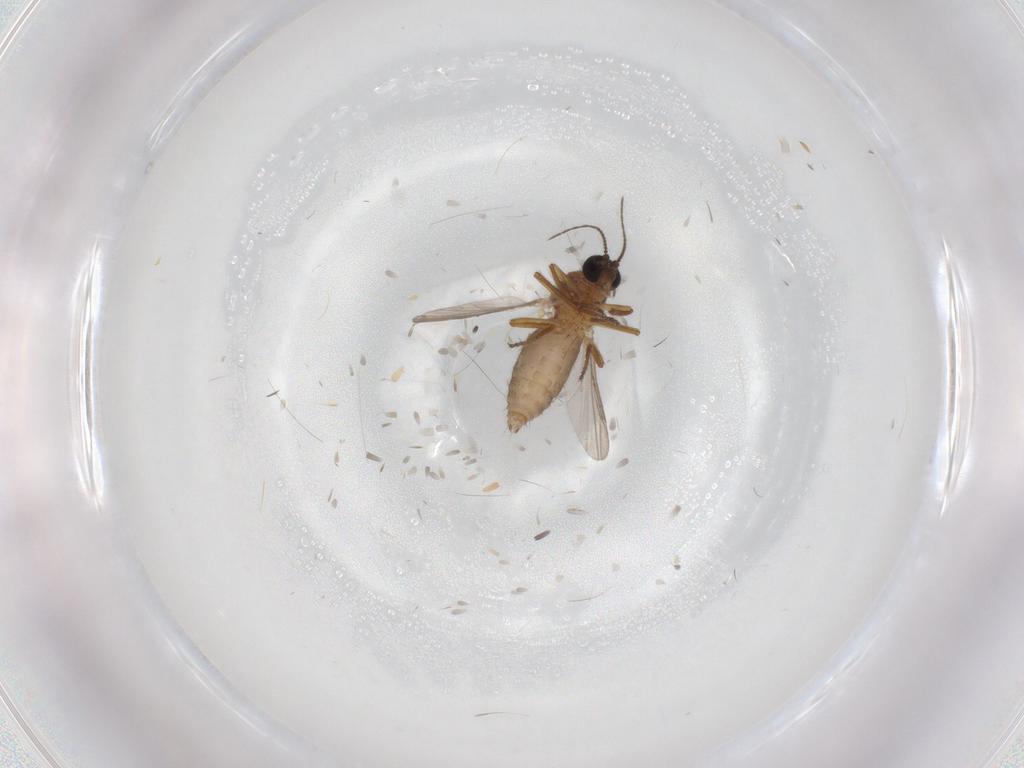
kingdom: Animalia
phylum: Arthropoda
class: Insecta
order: Diptera
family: Ceratopogonidae
